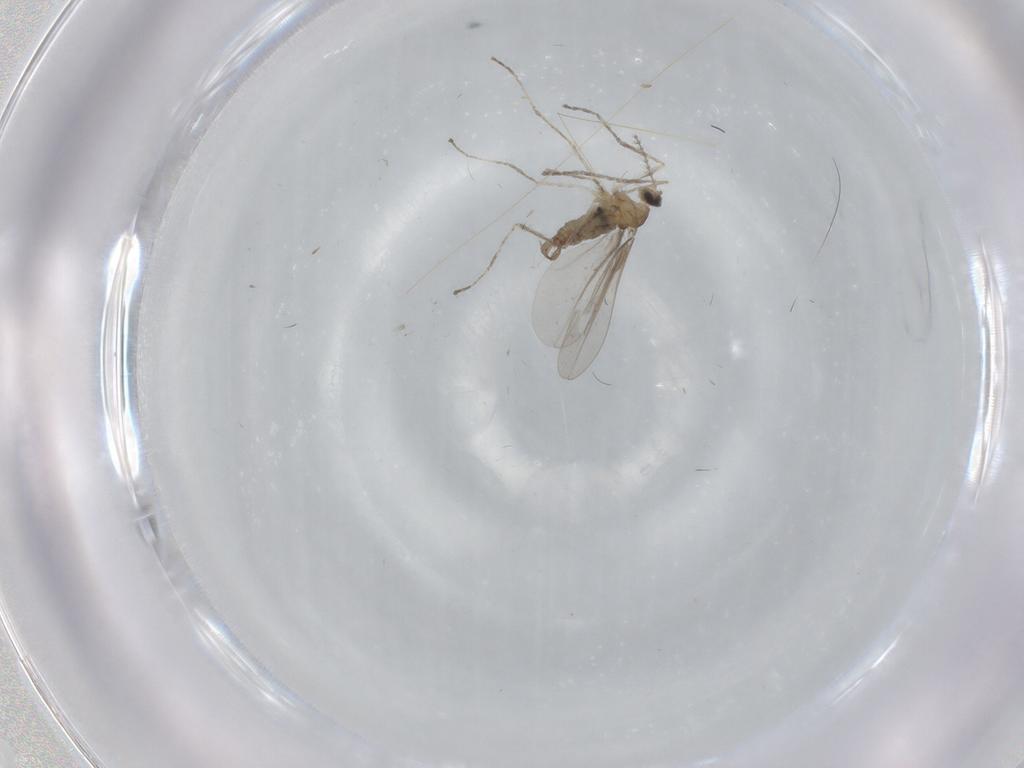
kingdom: Animalia
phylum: Arthropoda
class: Insecta
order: Diptera
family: Cecidomyiidae
